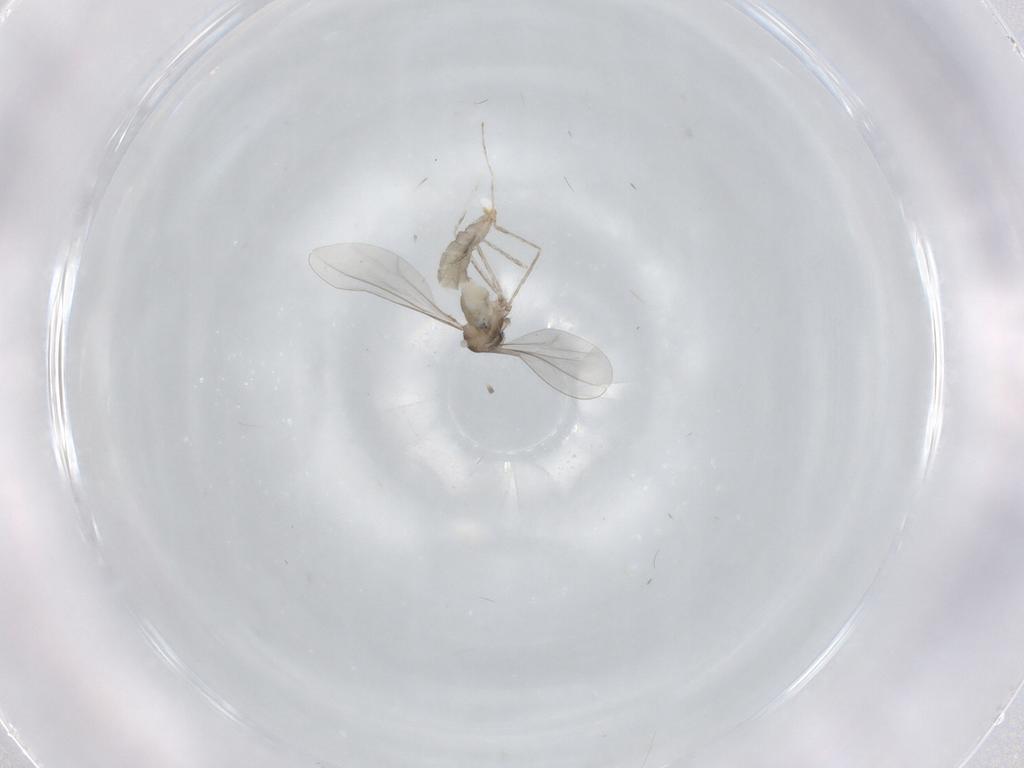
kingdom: Animalia
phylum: Arthropoda
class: Insecta
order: Diptera
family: Cecidomyiidae
